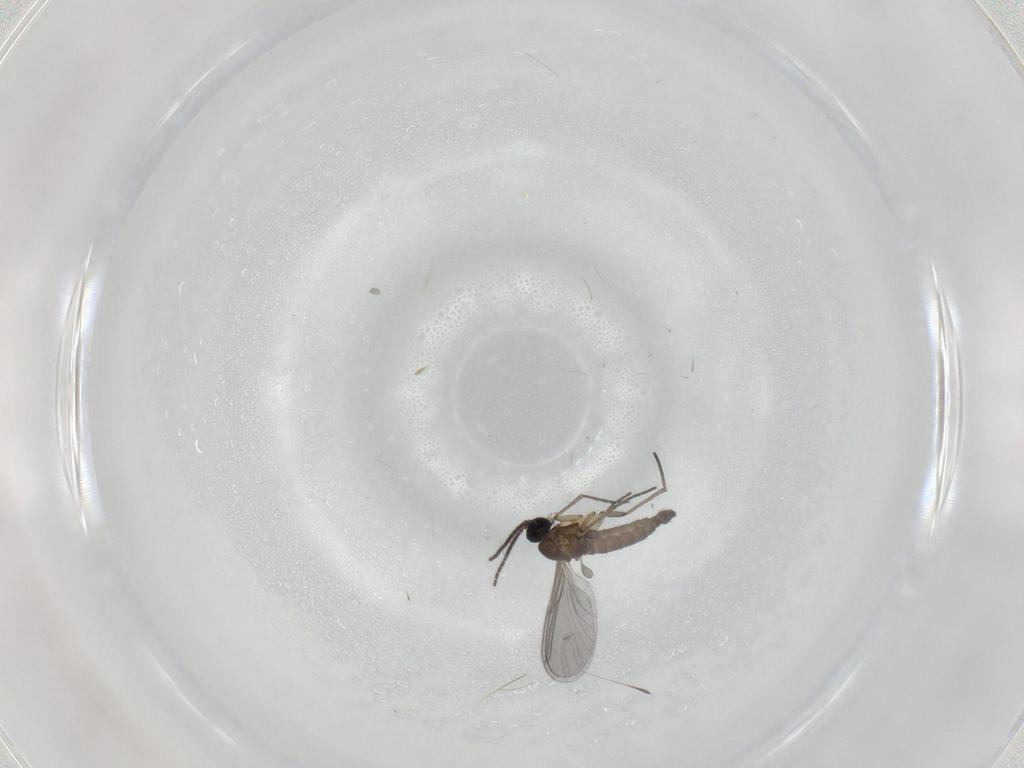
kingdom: Animalia
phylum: Arthropoda
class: Insecta
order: Diptera
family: Sciaridae
